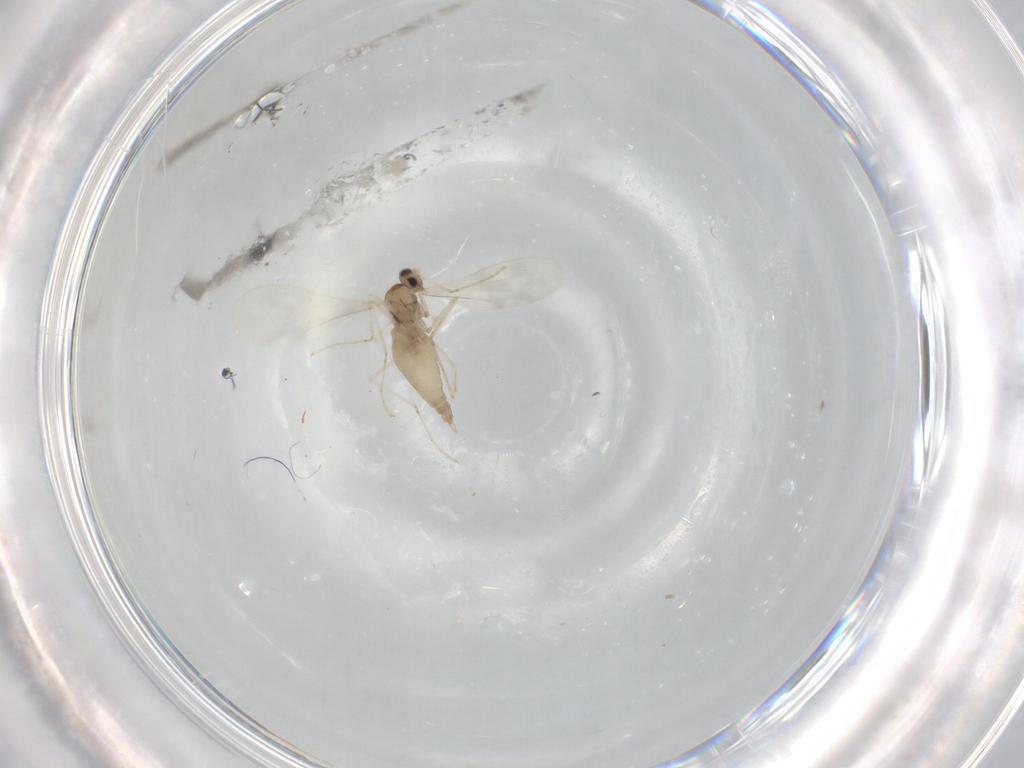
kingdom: Animalia
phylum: Arthropoda
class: Insecta
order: Diptera
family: Cecidomyiidae
